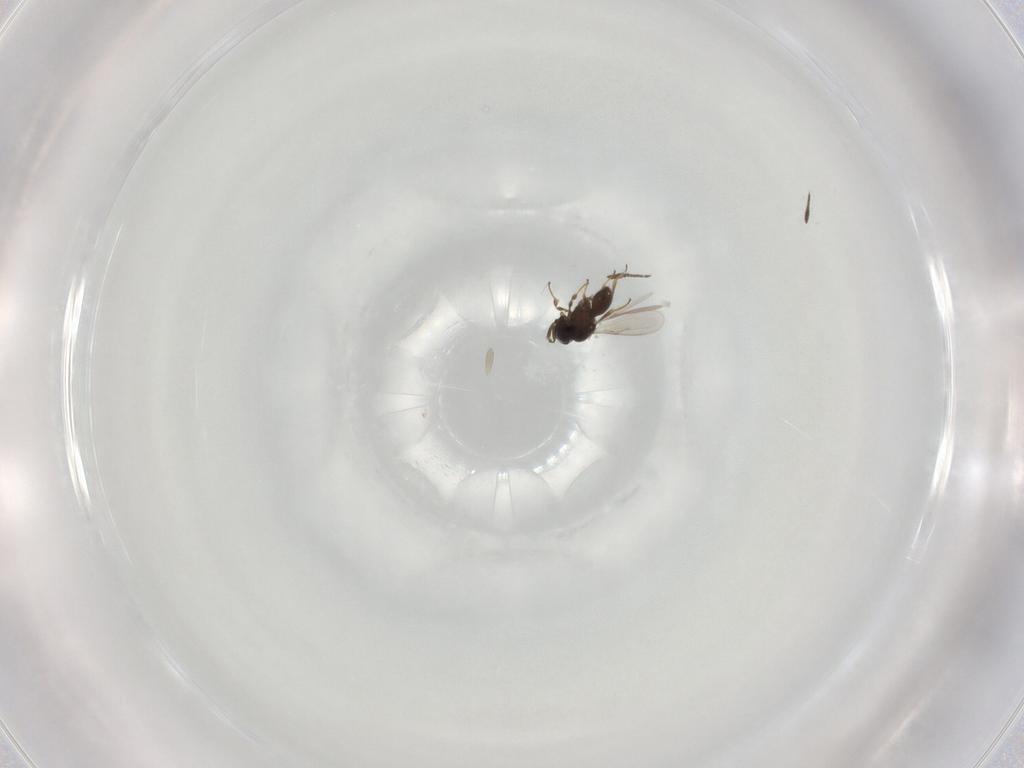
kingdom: Animalia
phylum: Arthropoda
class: Insecta
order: Hymenoptera
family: Scelionidae
